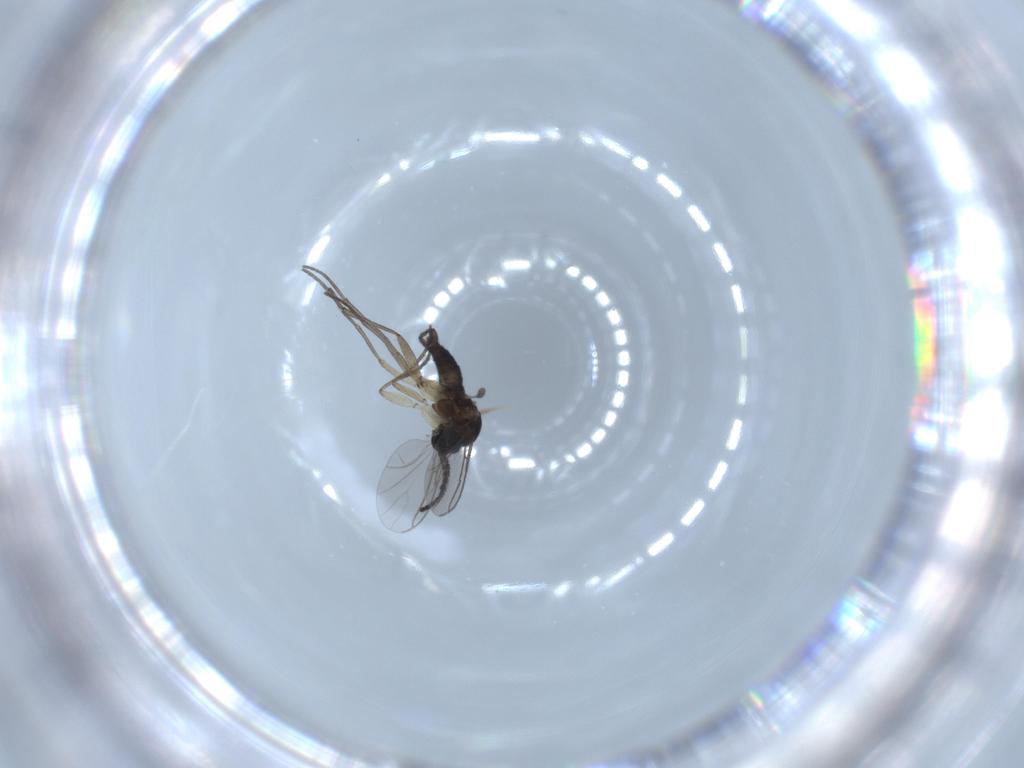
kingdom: Animalia
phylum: Arthropoda
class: Insecta
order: Diptera
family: Sciaridae
